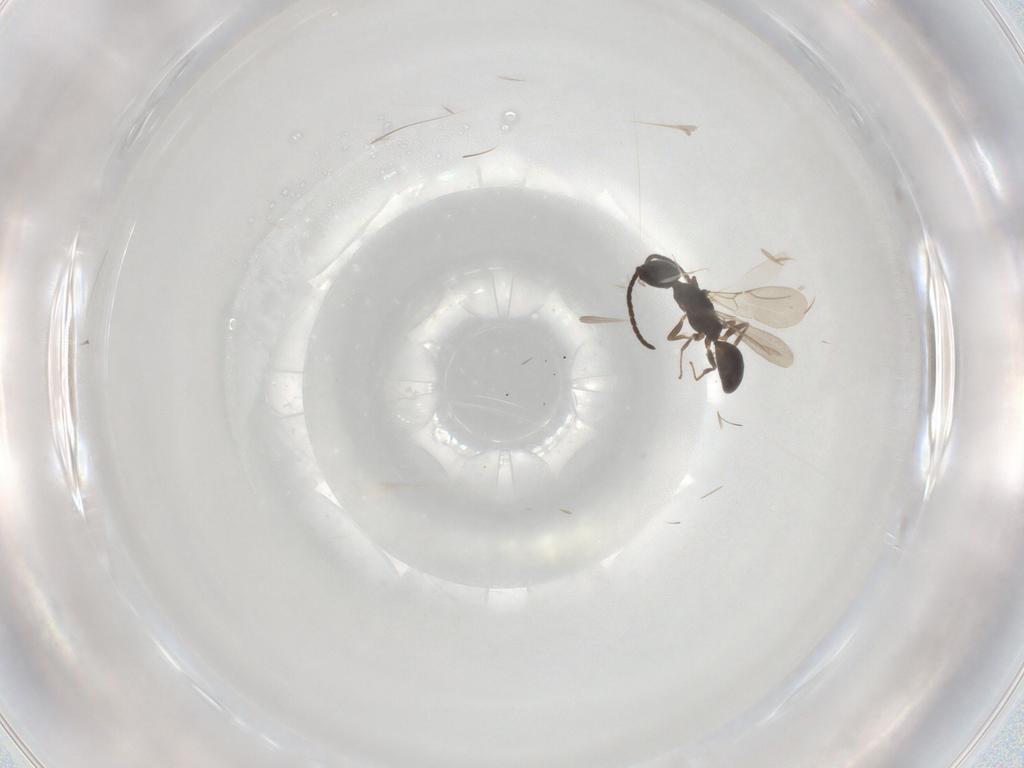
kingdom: Animalia
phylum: Arthropoda
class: Insecta
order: Hymenoptera
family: Bethylidae
